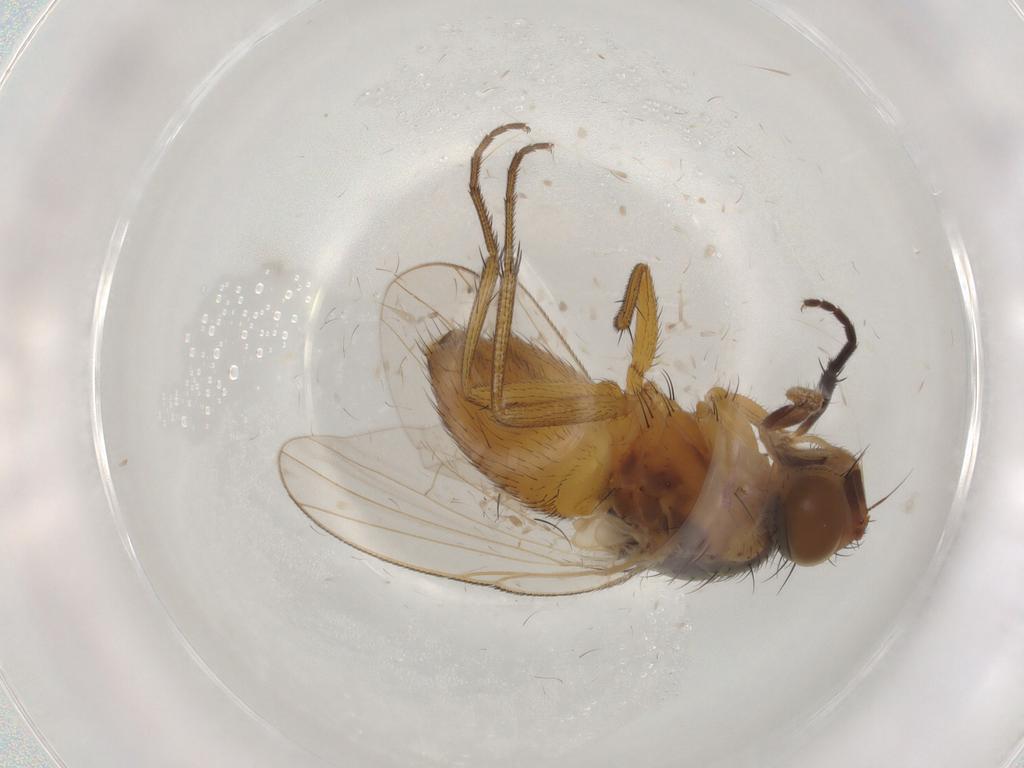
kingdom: Animalia
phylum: Arthropoda
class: Insecta
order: Diptera
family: Muscidae
